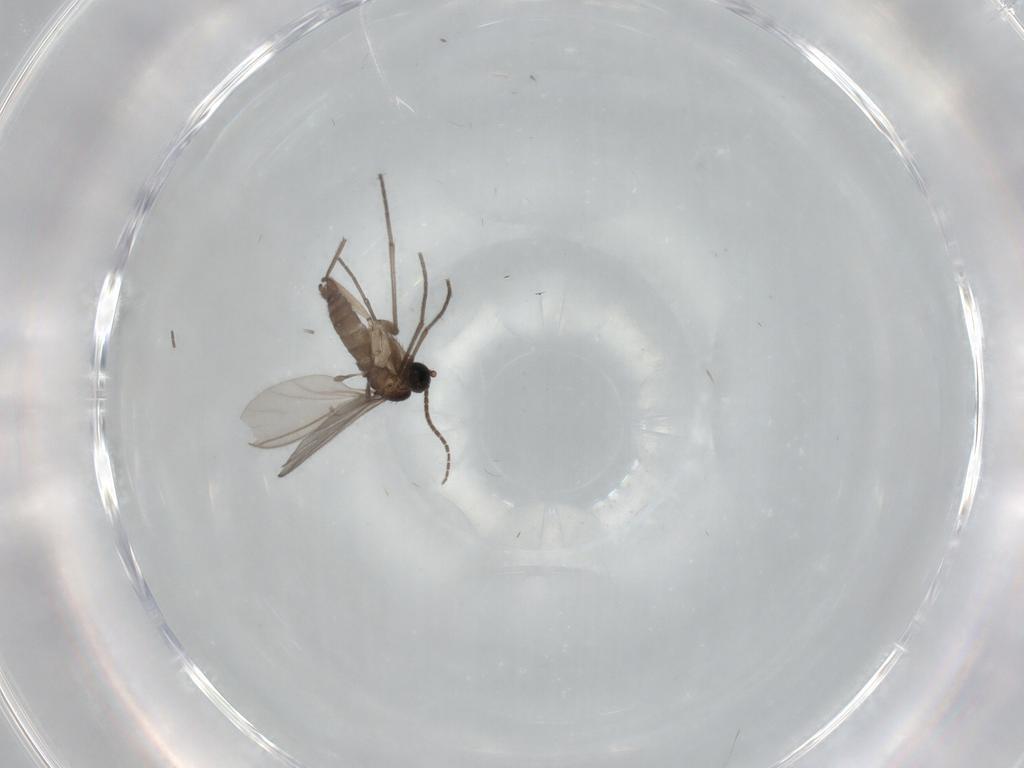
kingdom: Animalia
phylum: Arthropoda
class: Insecta
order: Diptera
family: Sciaridae
